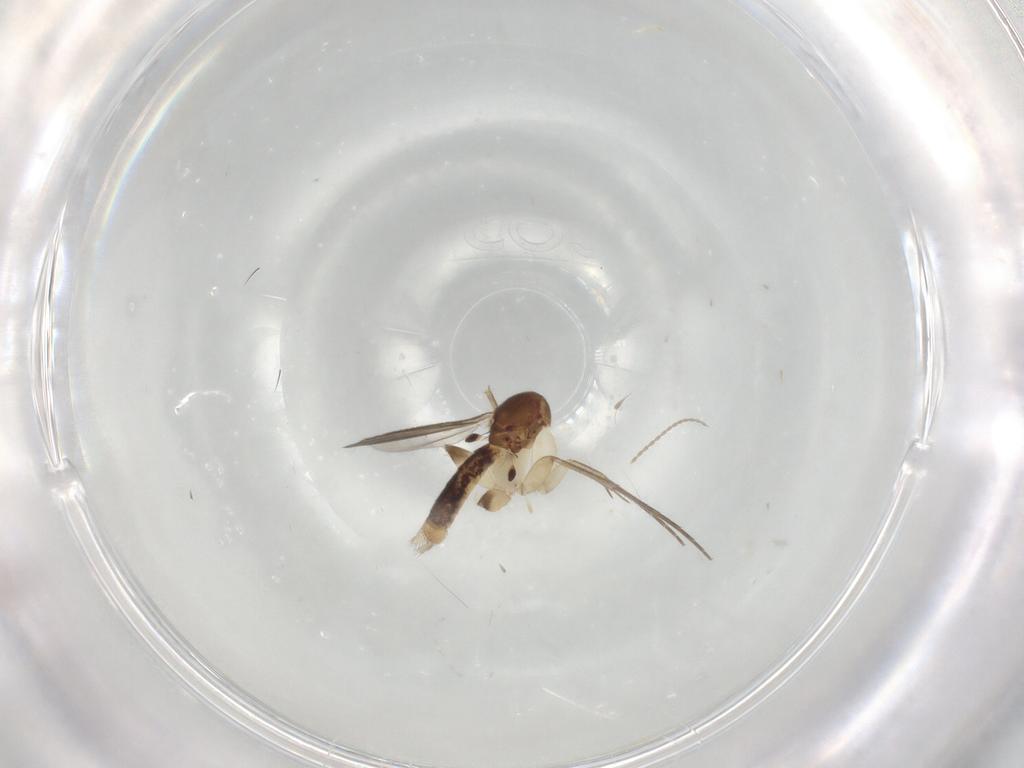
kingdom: Animalia
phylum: Arthropoda
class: Insecta
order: Diptera
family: Mycetophilidae
